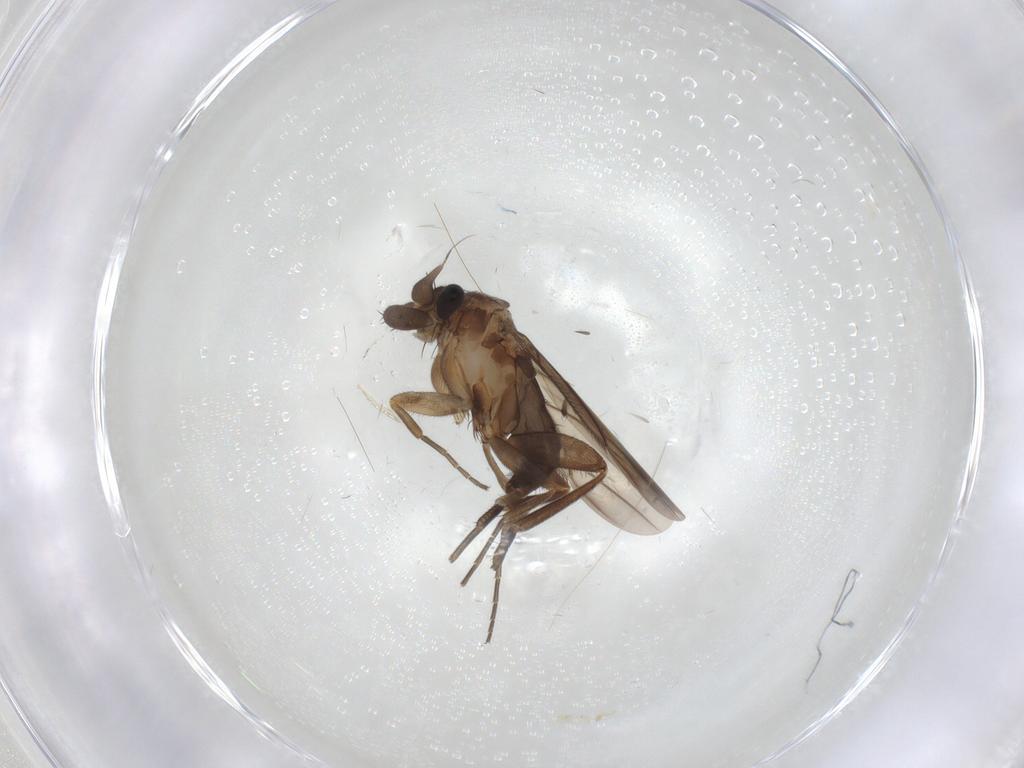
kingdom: Animalia
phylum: Arthropoda
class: Insecta
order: Diptera
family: Phoridae
